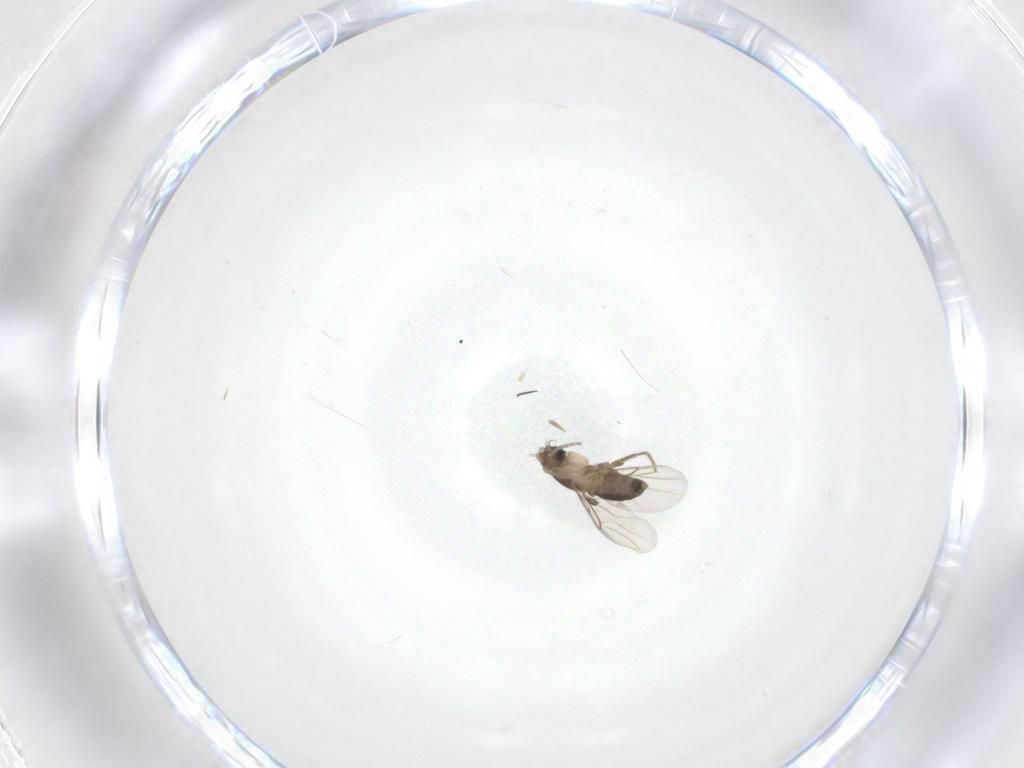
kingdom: Animalia
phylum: Arthropoda
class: Insecta
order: Diptera
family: Phoridae
